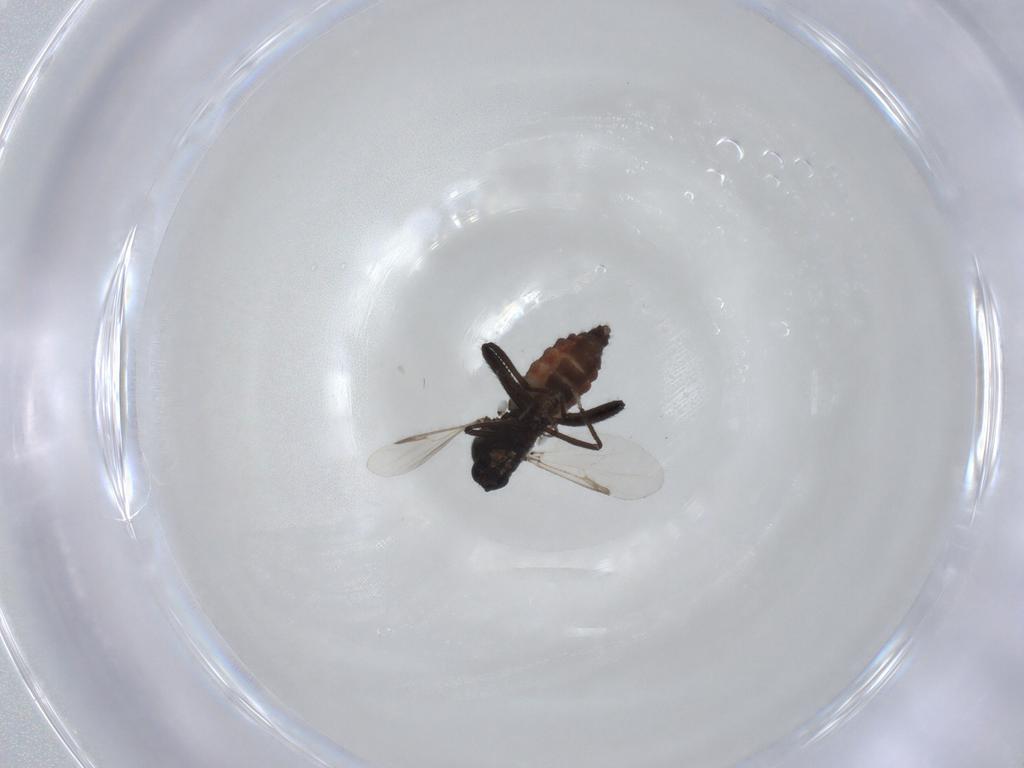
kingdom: Animalia
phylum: Arthropoda
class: Insecta
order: Diptera
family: Ceratopogonidae
